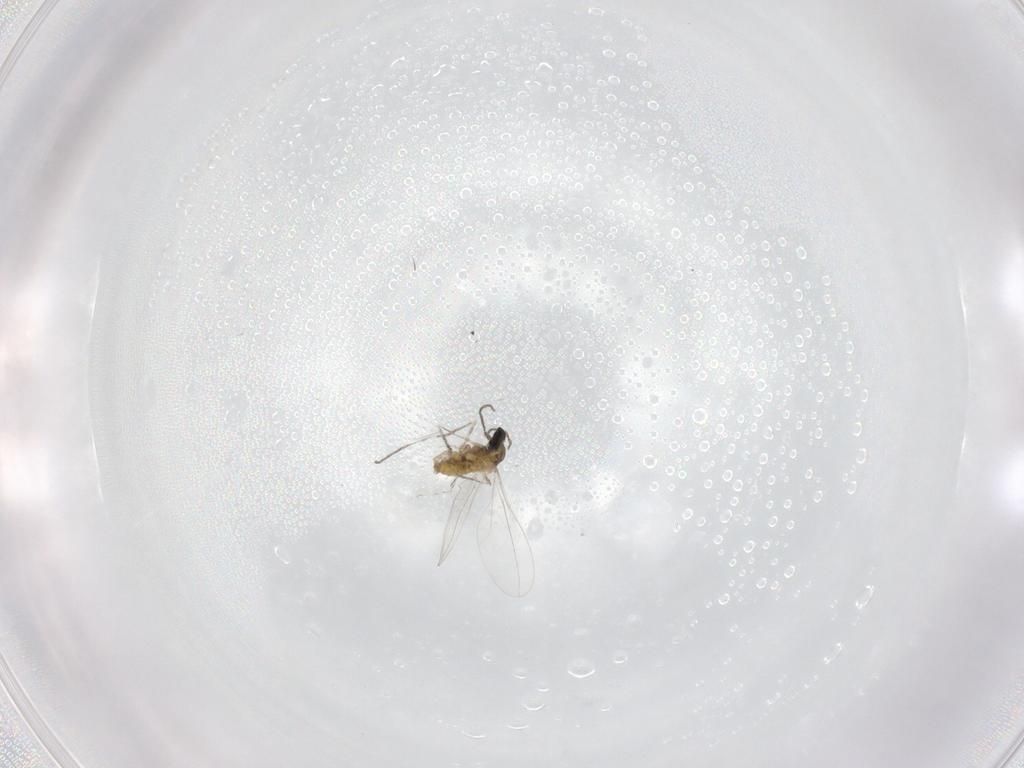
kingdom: Animalia
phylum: Arthropoda
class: Insecta
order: Diptera
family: Cecidomyiidae
